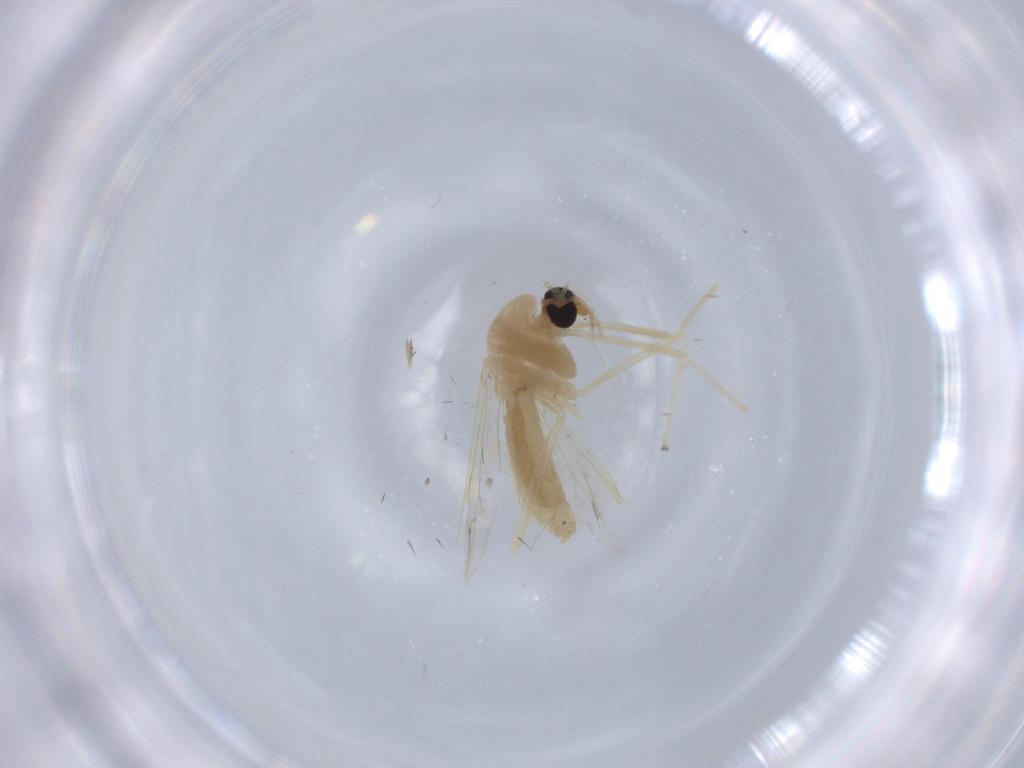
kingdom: Animalia
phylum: Arthropoda
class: Insecta
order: Diptera
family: Chironomidae
